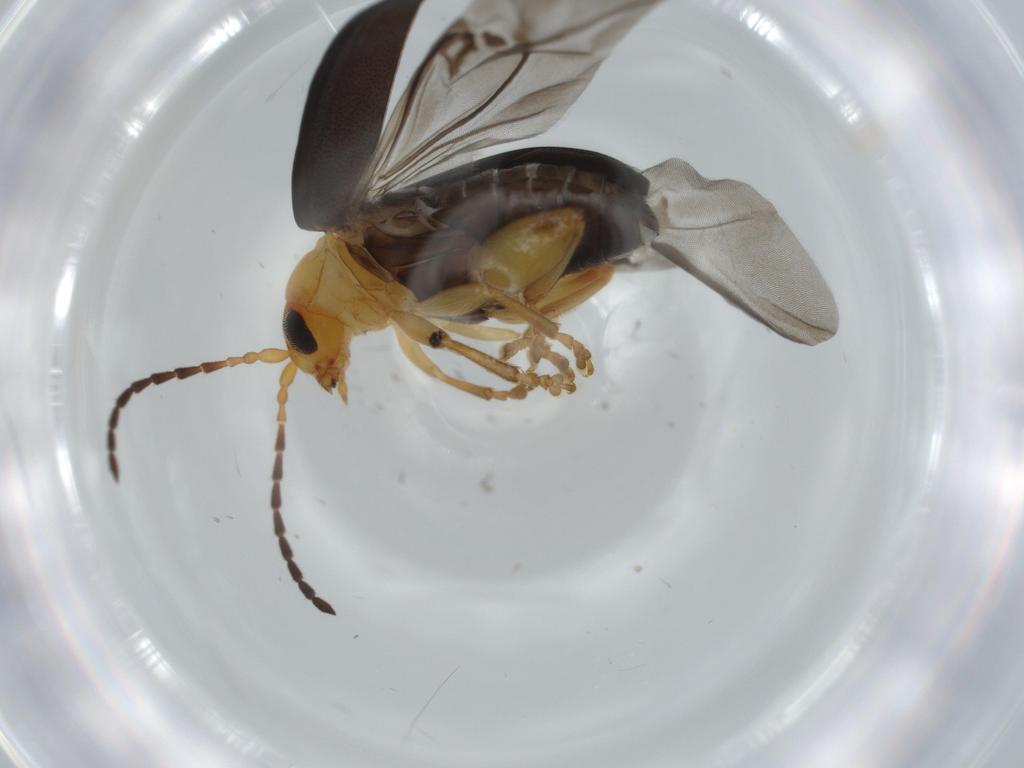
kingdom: Animalia
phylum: Arthropoda
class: Insecta
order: Coleoptera
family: Chrysomelidae
